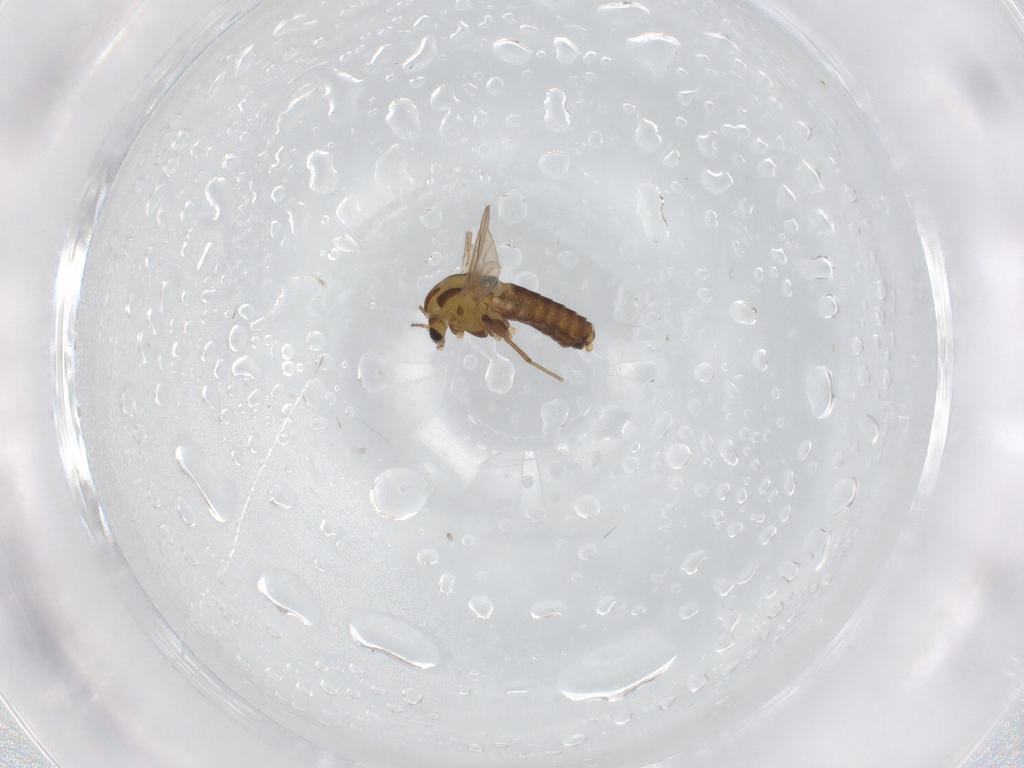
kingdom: Animalia
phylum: Arthropoda
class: Insecta
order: Diptera
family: Chironomidae
